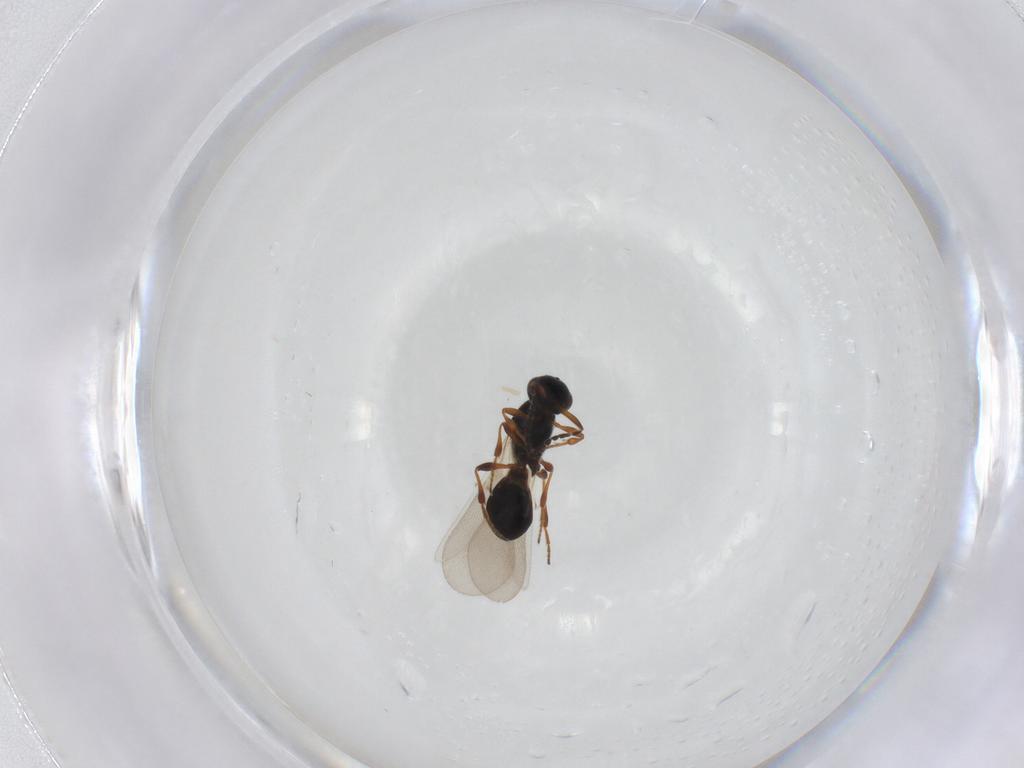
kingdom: Animalia
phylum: Arthropoda
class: Insecta
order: Hymenoptera
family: Platygastridae
